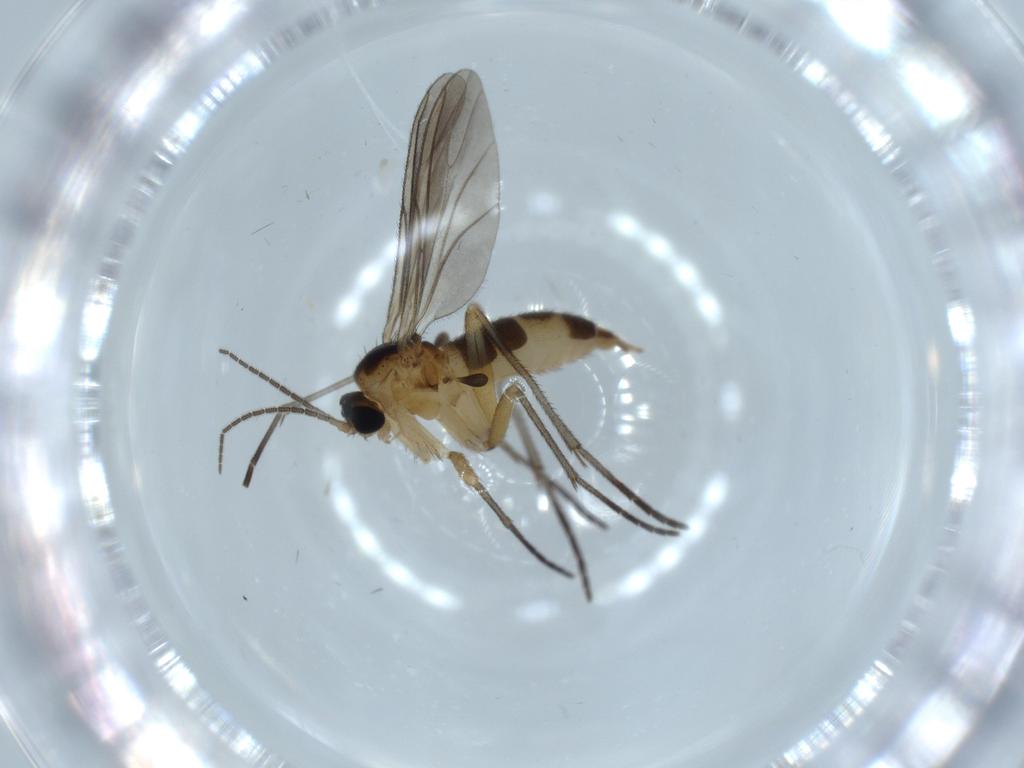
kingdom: Animalia
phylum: Arthropoda
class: Insecta
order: Diptera
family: Sciaridae
